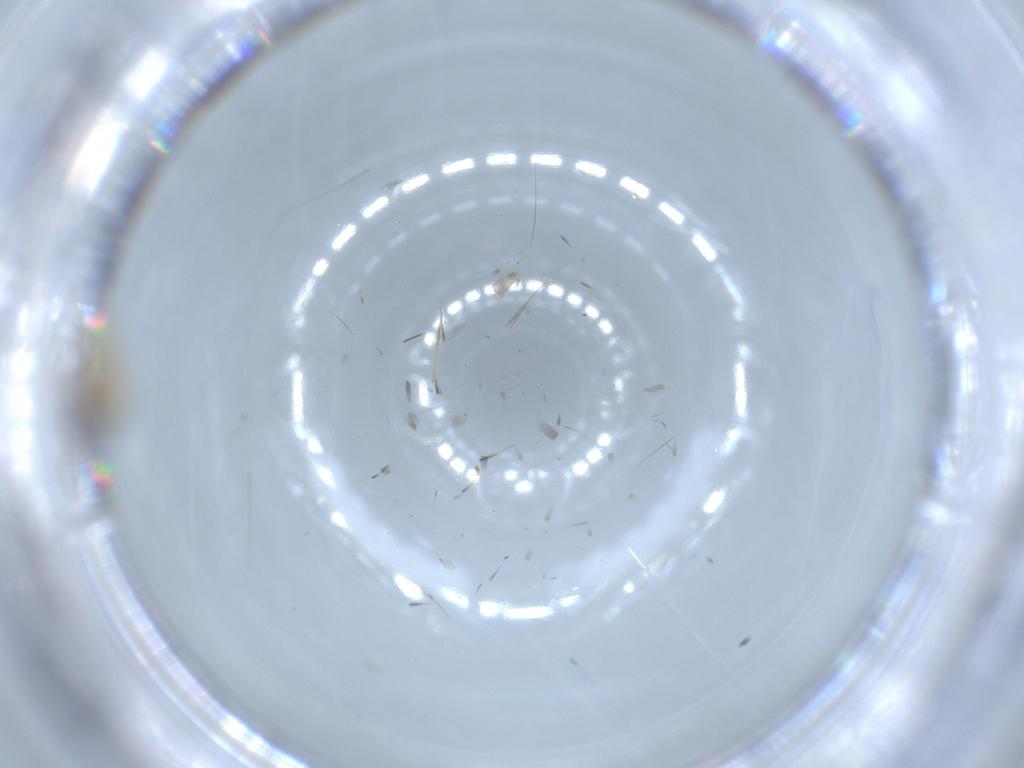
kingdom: Animalia
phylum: Arthropoda
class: Insecta
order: Diptera
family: Cecidomyiidae
